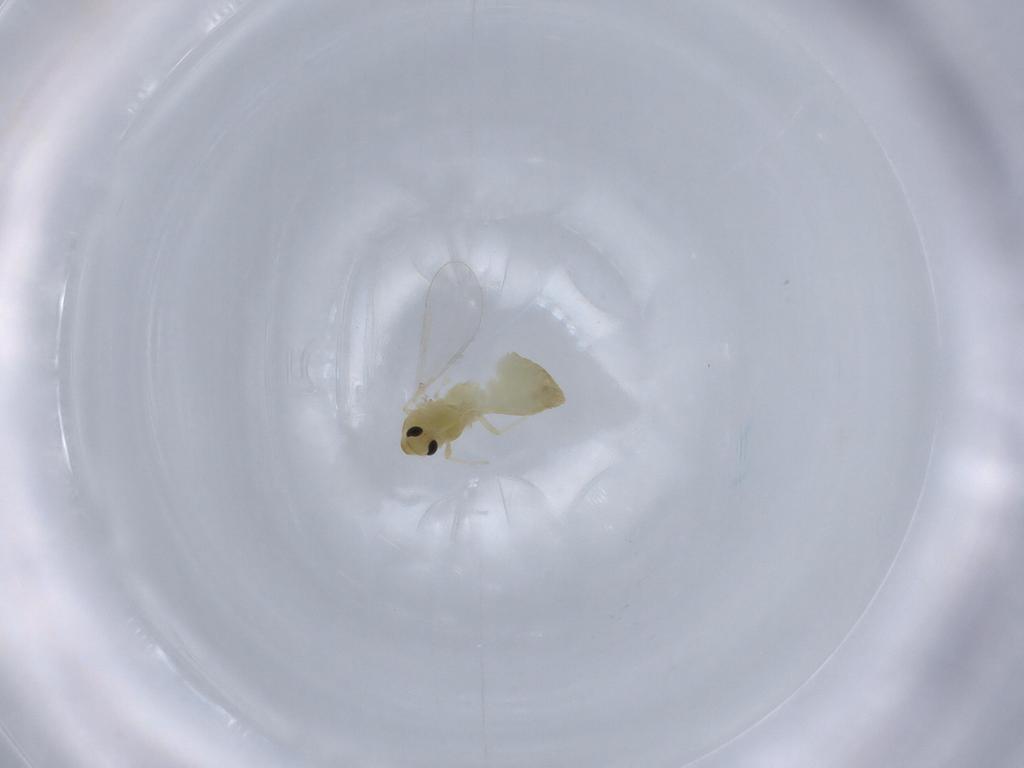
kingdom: Animalia
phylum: Arthropoda
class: Insecta
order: Diptera
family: Chironomidae
